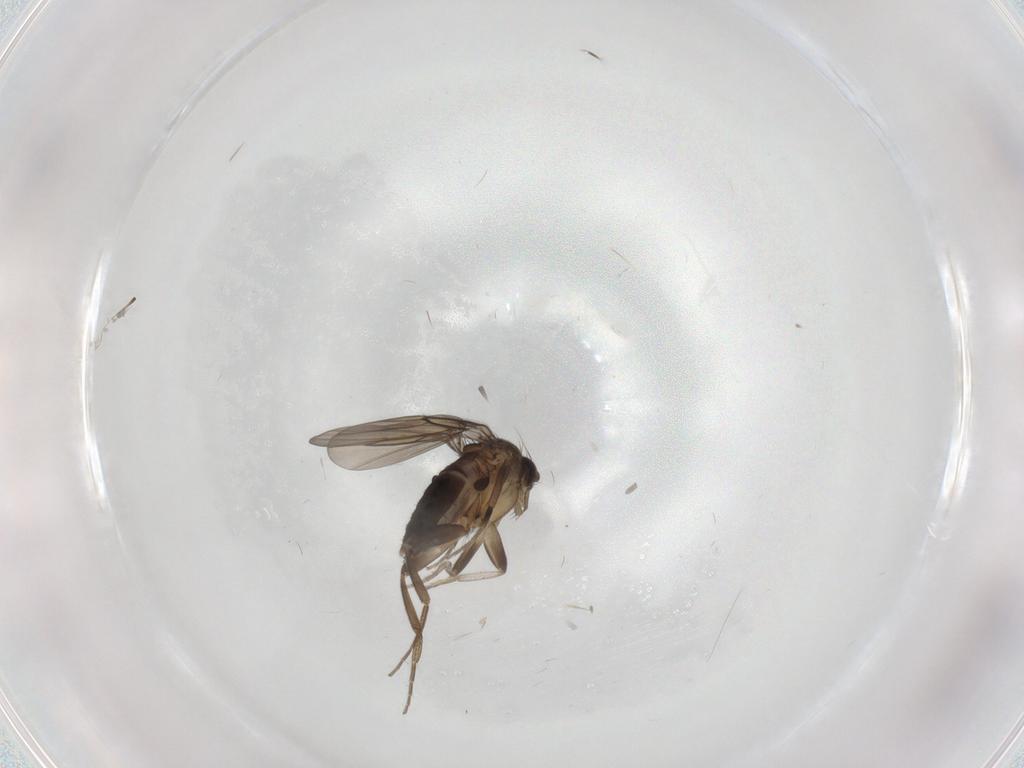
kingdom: Animalia
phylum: Arthropoda
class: Insecta
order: Diptera
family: Phoridae
